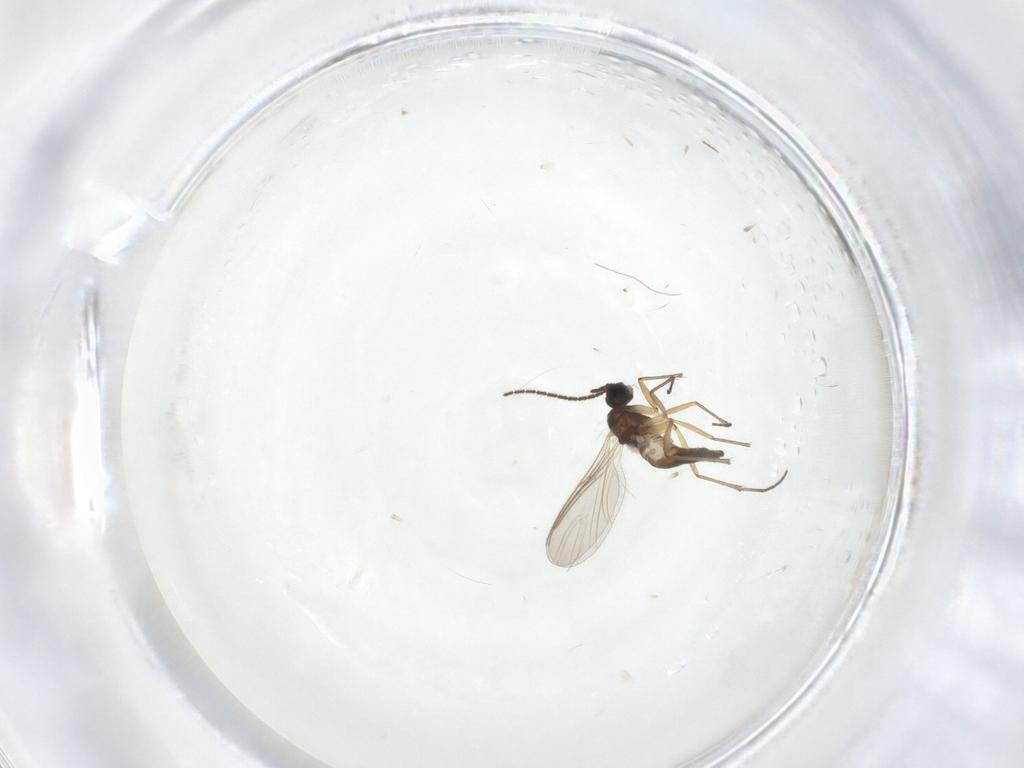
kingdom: Animalia
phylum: Arthropoda
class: Insecta
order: Diptera
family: Sciaridae
